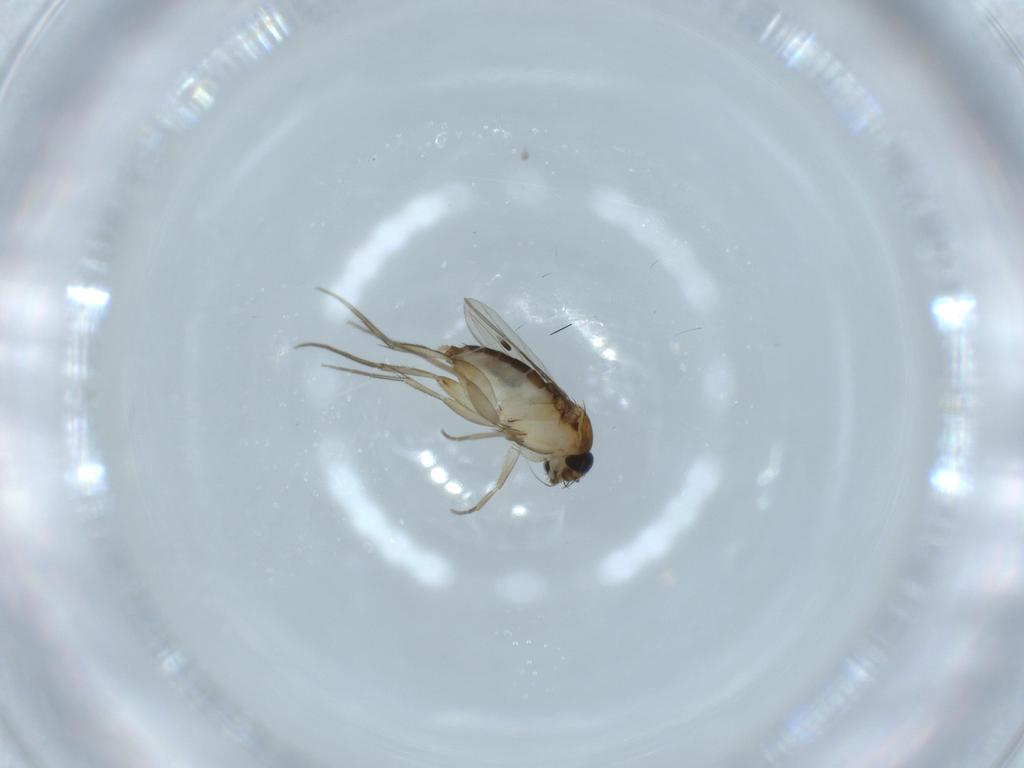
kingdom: Animalia
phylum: Arthropoda
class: Insecta
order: Diptera
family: Phoridae
